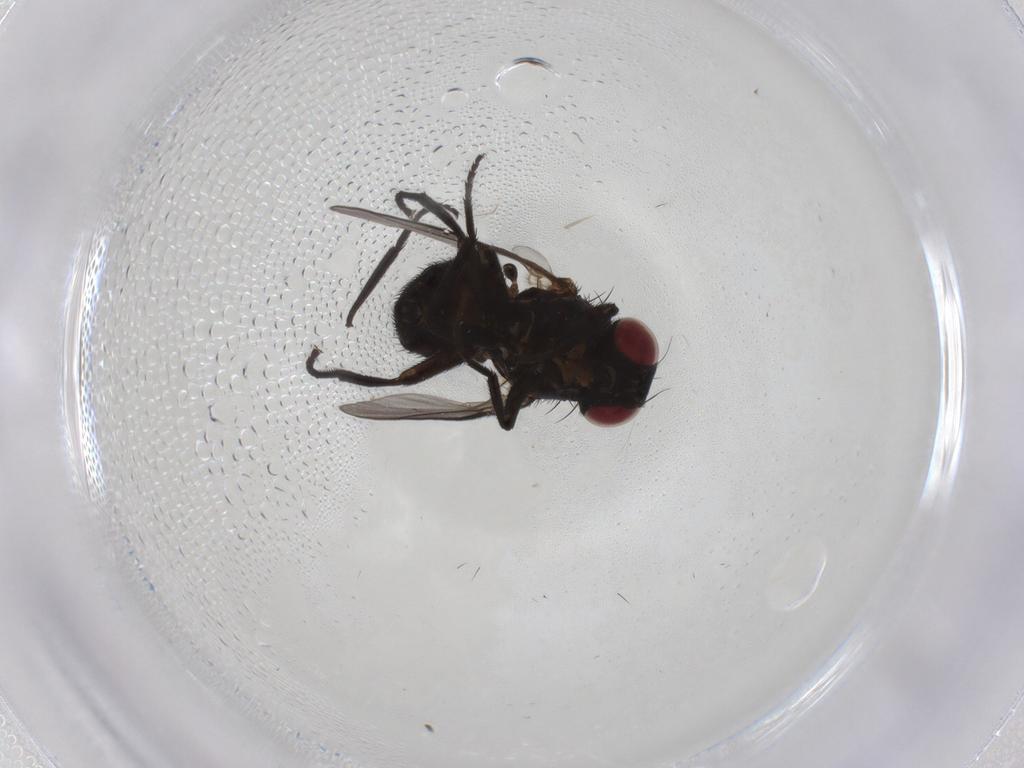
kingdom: Animalia
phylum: Arthropoda
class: Insecta
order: Diptera
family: Agromyzidae
